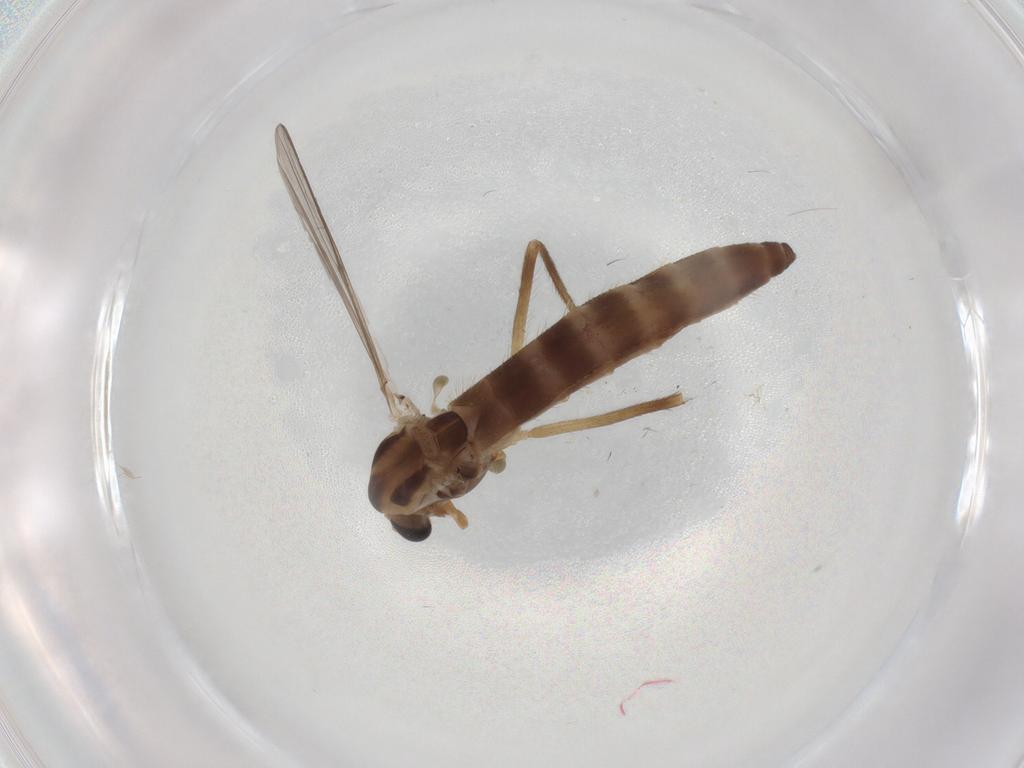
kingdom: Animalia
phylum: Arthropoda
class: Insecta
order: Diptera
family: Chironomidae
